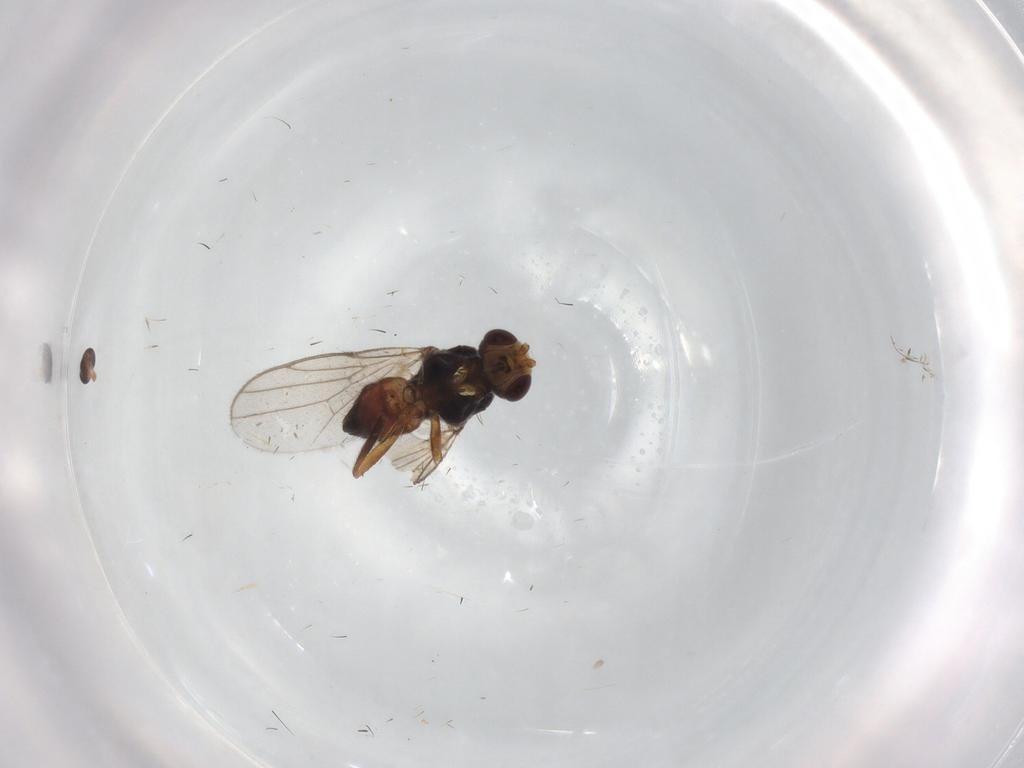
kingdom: Animalia
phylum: Arthropoda
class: Insecta
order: Diptera
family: Chloropidae
